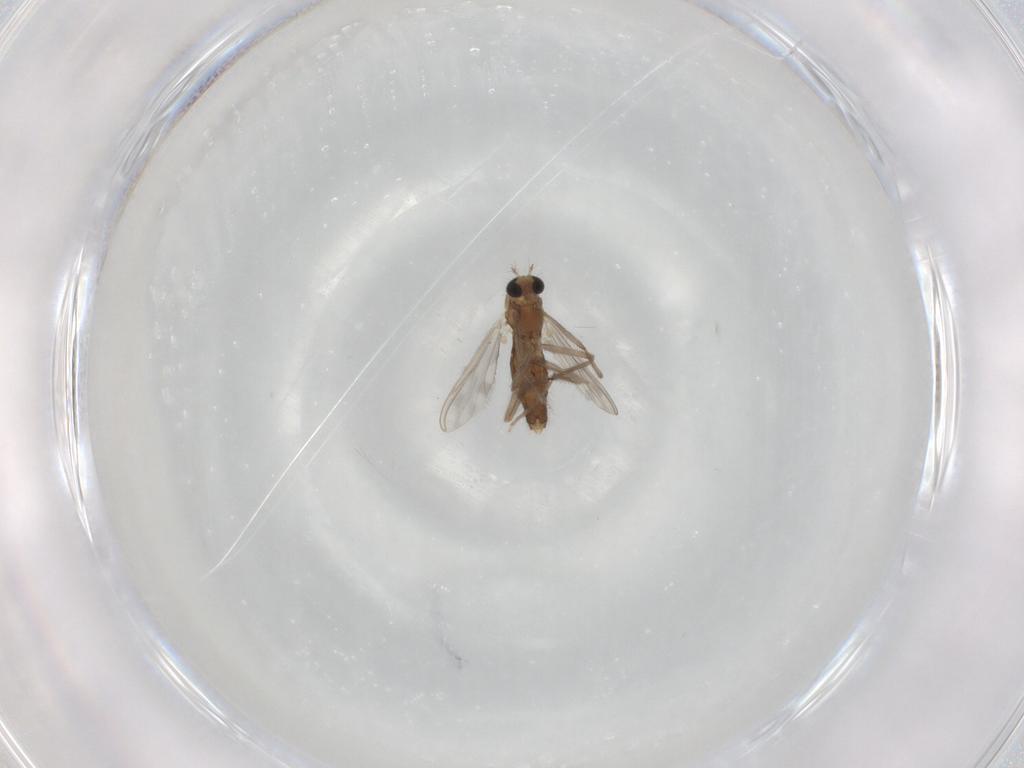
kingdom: Animalia
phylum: Arthropoda
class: Insecta
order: Diptera
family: Chironomidae
